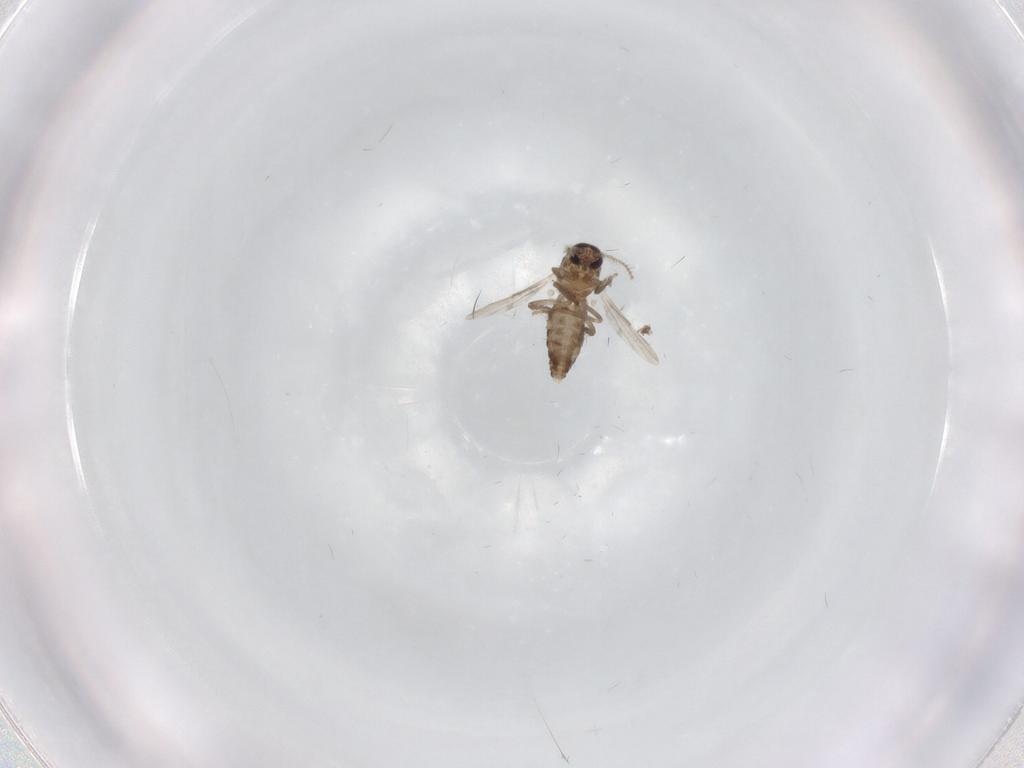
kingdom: Animalia
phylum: Arthropoda
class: Insecta
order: Diptera
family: Ceratopogonidae
